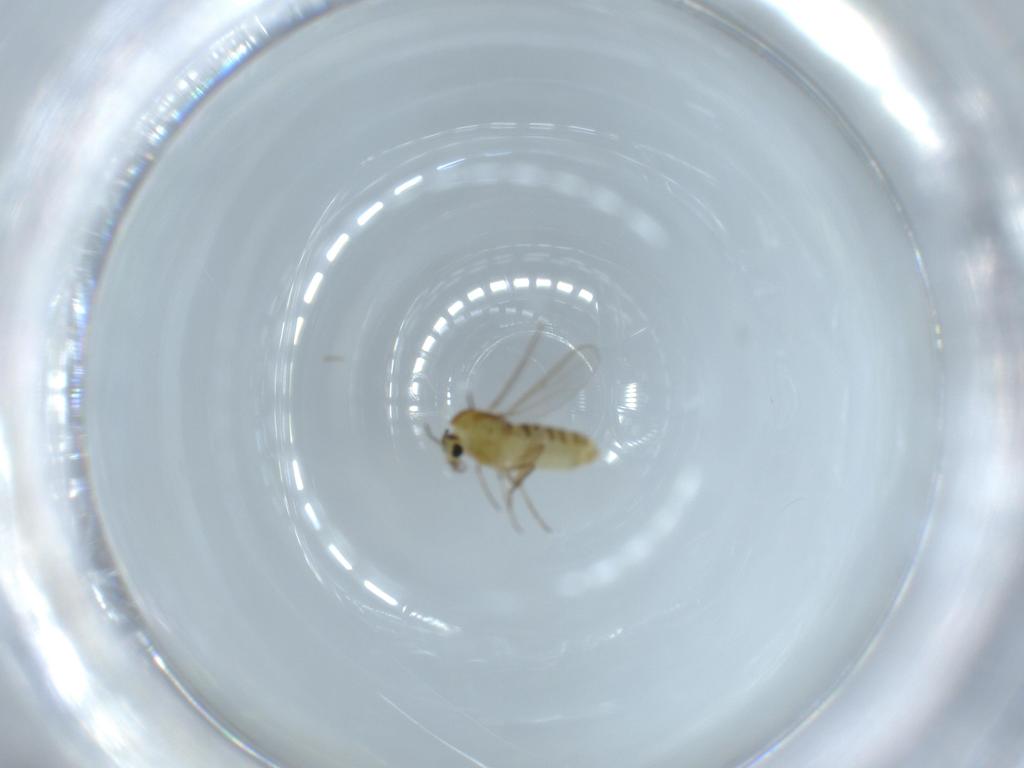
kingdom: Animalia
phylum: Arthropoda
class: Insecta
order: Diptera
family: Chironomidae
